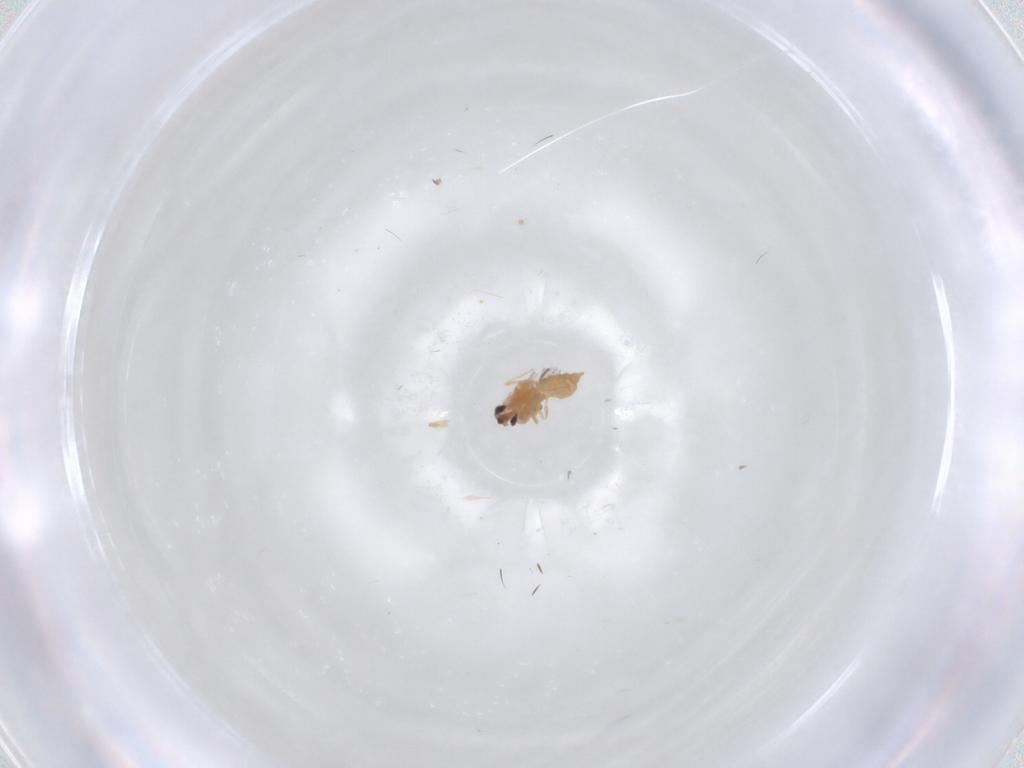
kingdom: Animalia
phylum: Arthropoda
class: Insecta
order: Diptera
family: Cecidomyiidae
